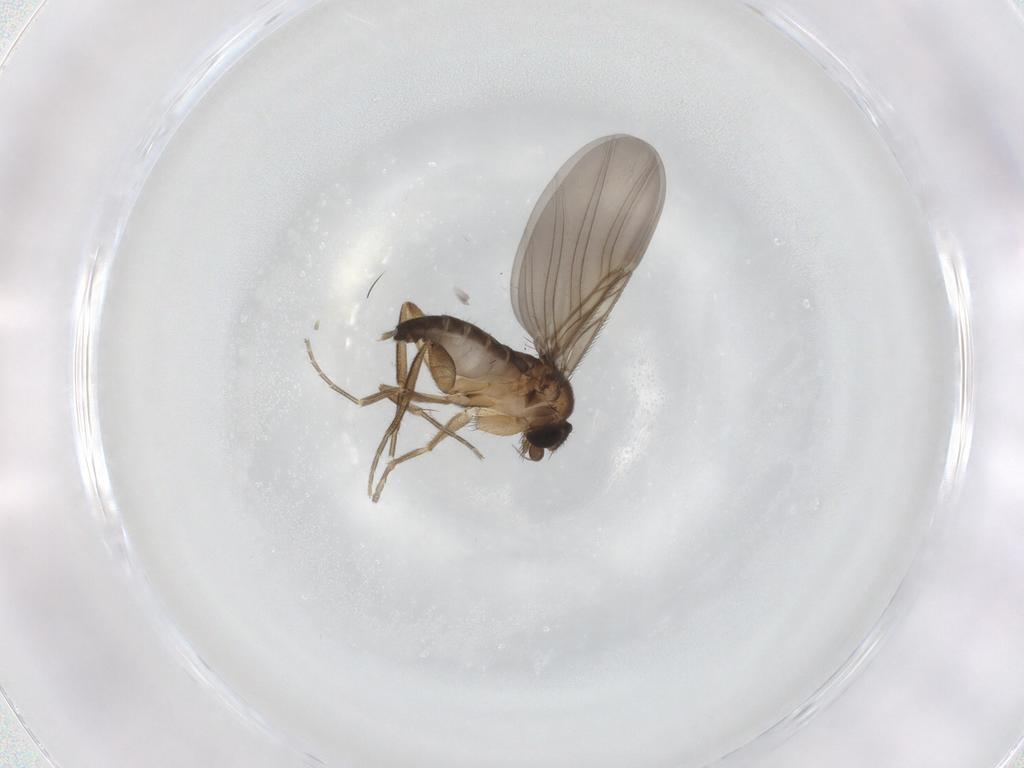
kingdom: Animalia
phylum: Arthropoda
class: Insecta
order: Diptera
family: Phoridae
